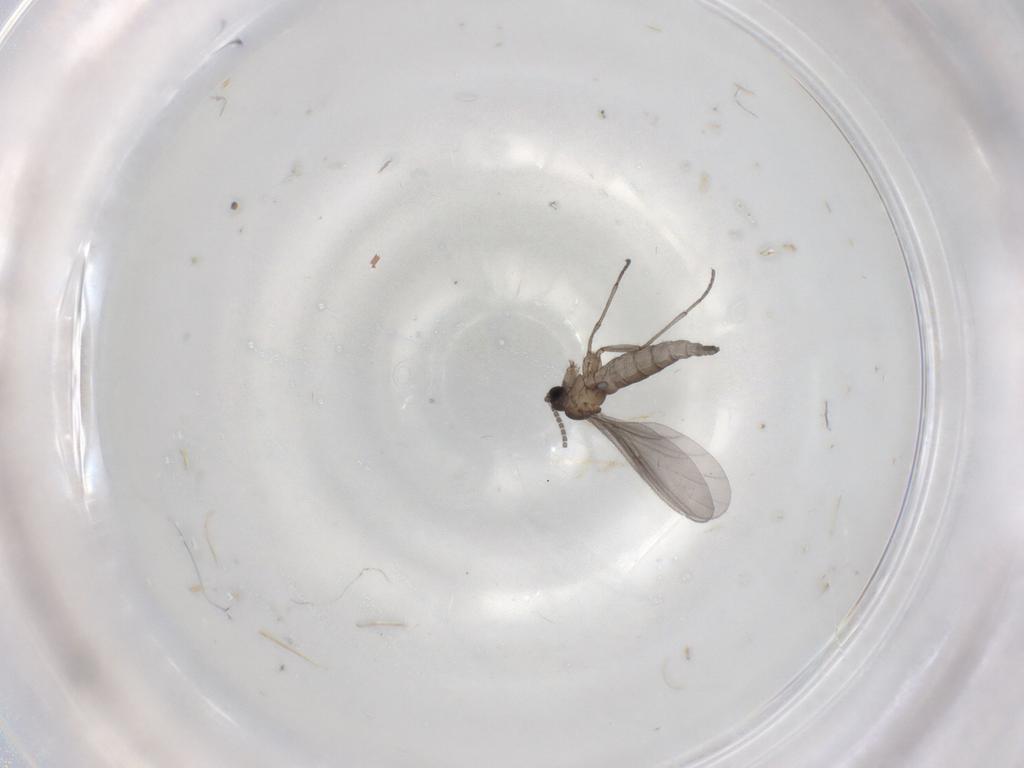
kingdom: Animalia
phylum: Arthropoda
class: Insecta
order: Diptera
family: Sciaridae
